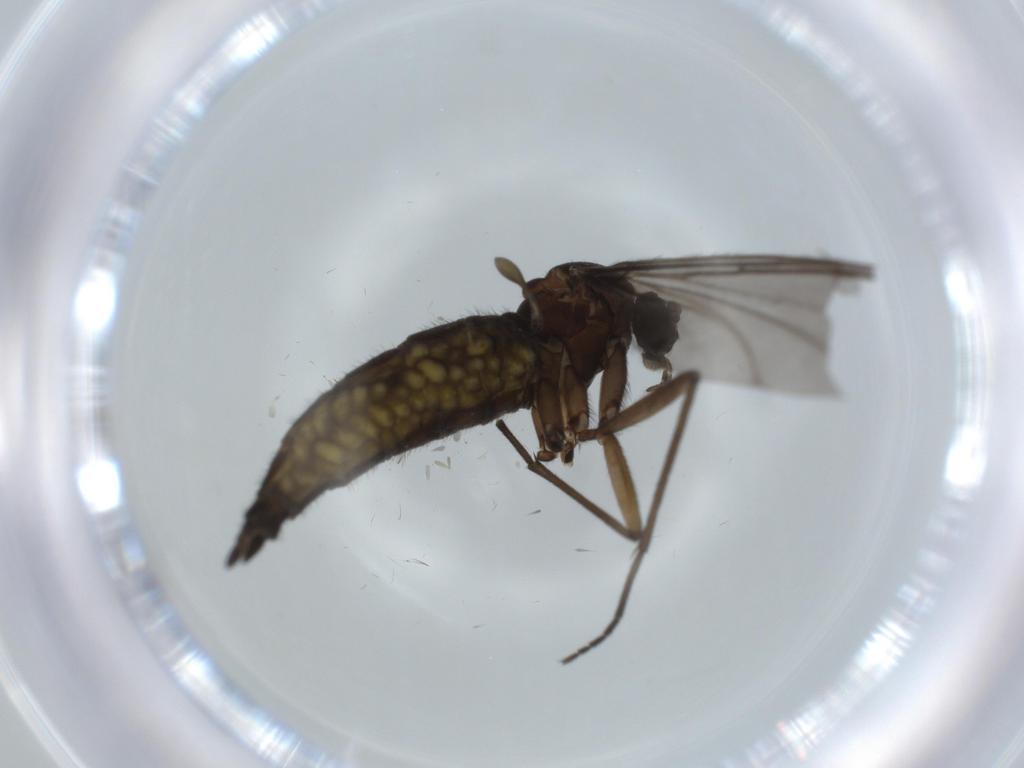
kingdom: Animalia
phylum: Arthropoda
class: Insecta
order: Diptera
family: Sciaridae
